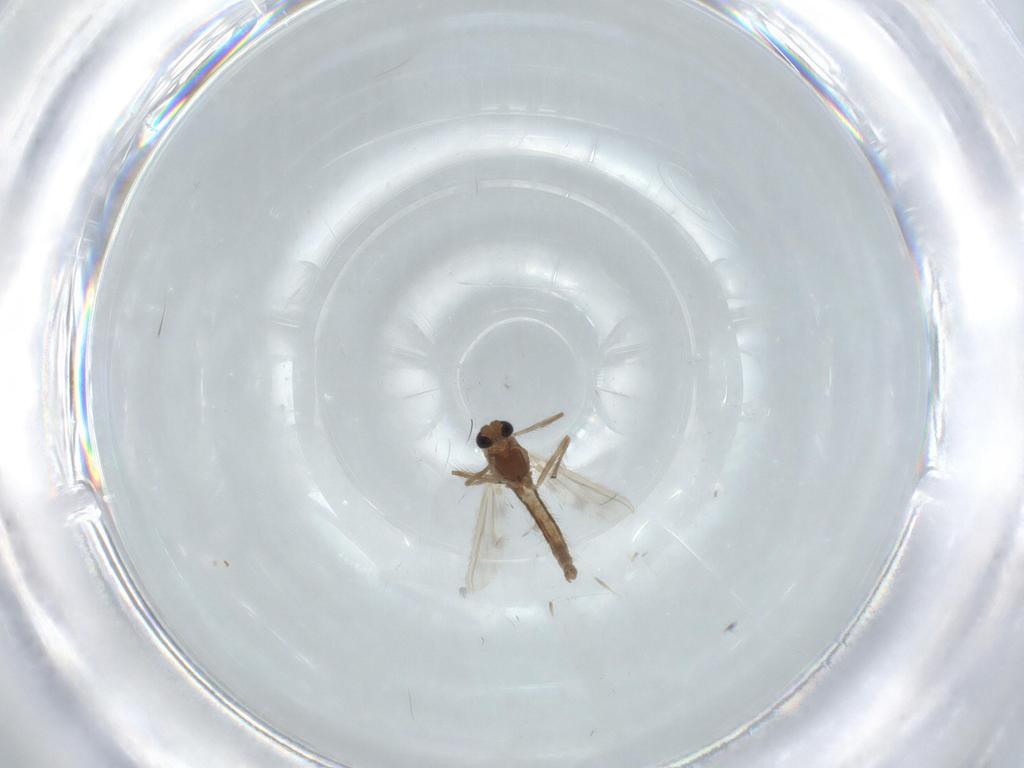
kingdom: Animalia
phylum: Arthropoda
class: Insecta
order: Diptera
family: Chironomidae
